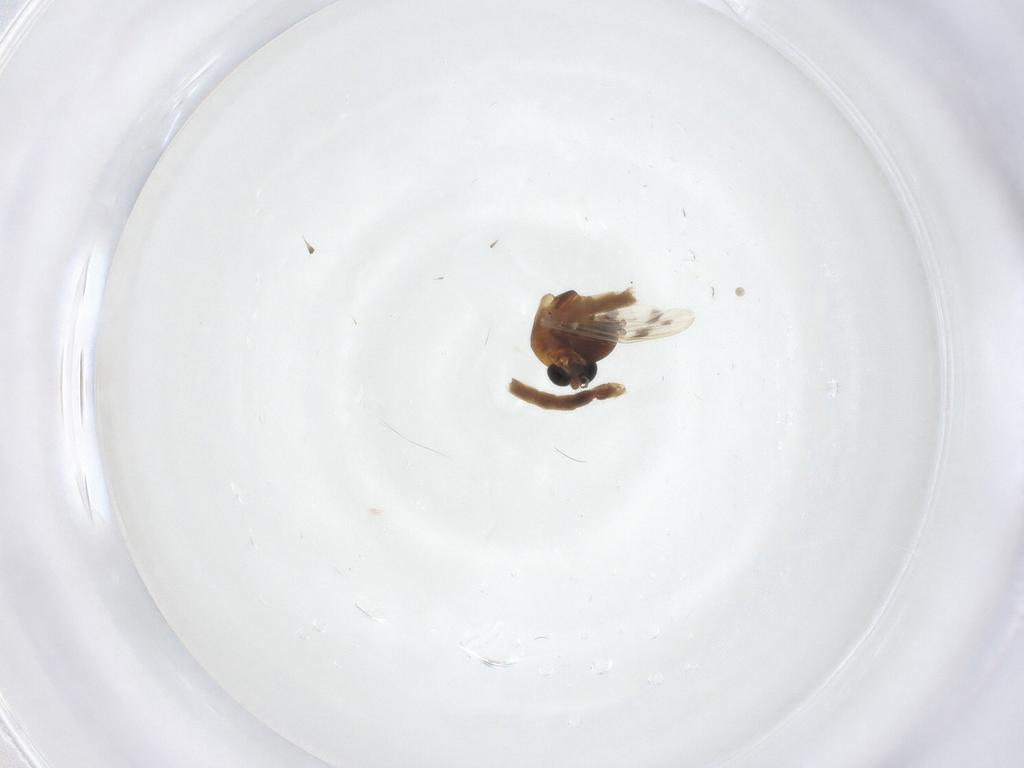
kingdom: Animalia
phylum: Arthropoda
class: Insecta
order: Diptera
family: Chironomidae
